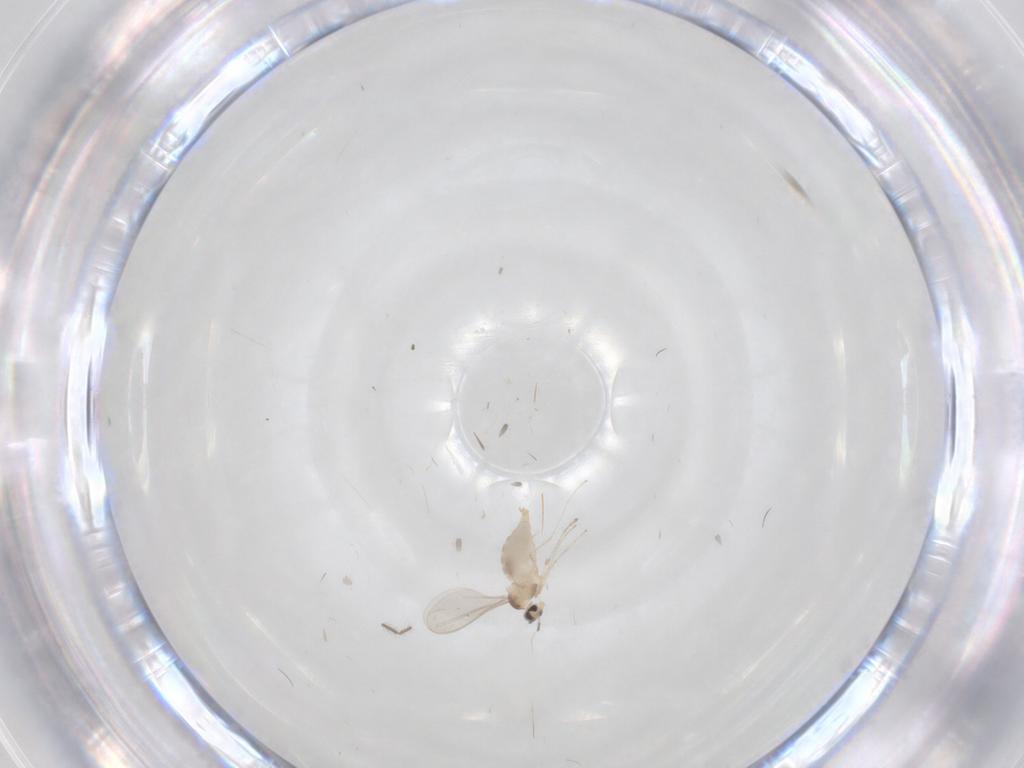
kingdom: Animalia
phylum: Arthropoda
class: Insecta
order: Diptera
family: Sciaridae
